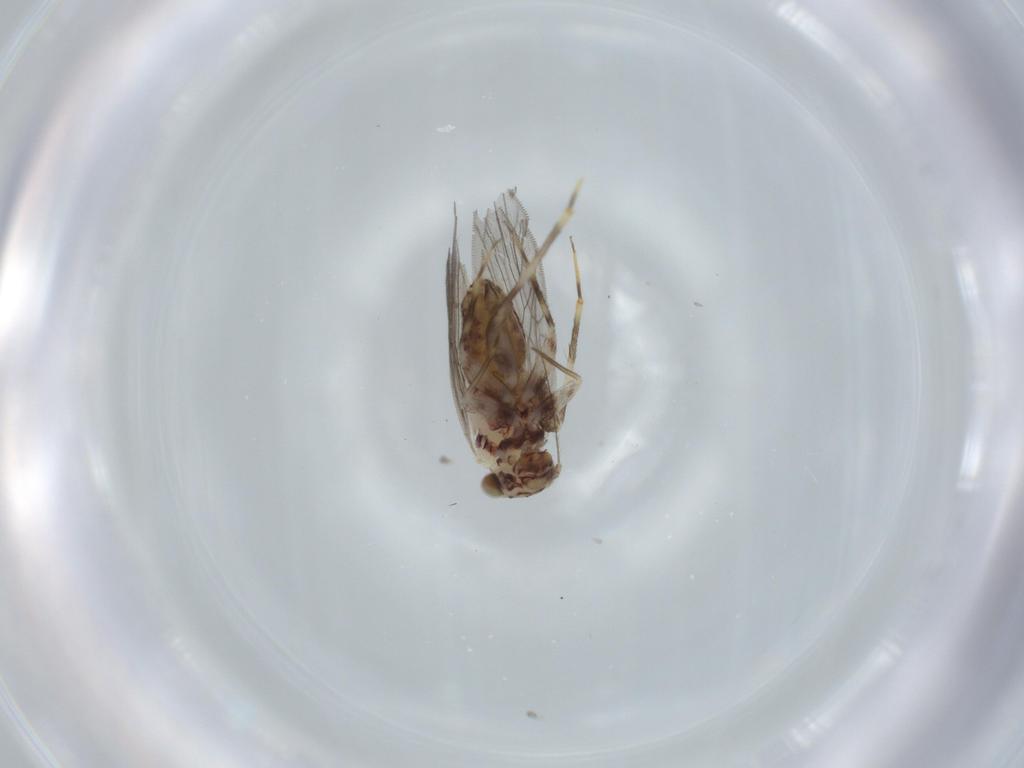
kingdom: Animalia
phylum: Arthropoda
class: Insecta
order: Psocodea
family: Lepidopsocidae
